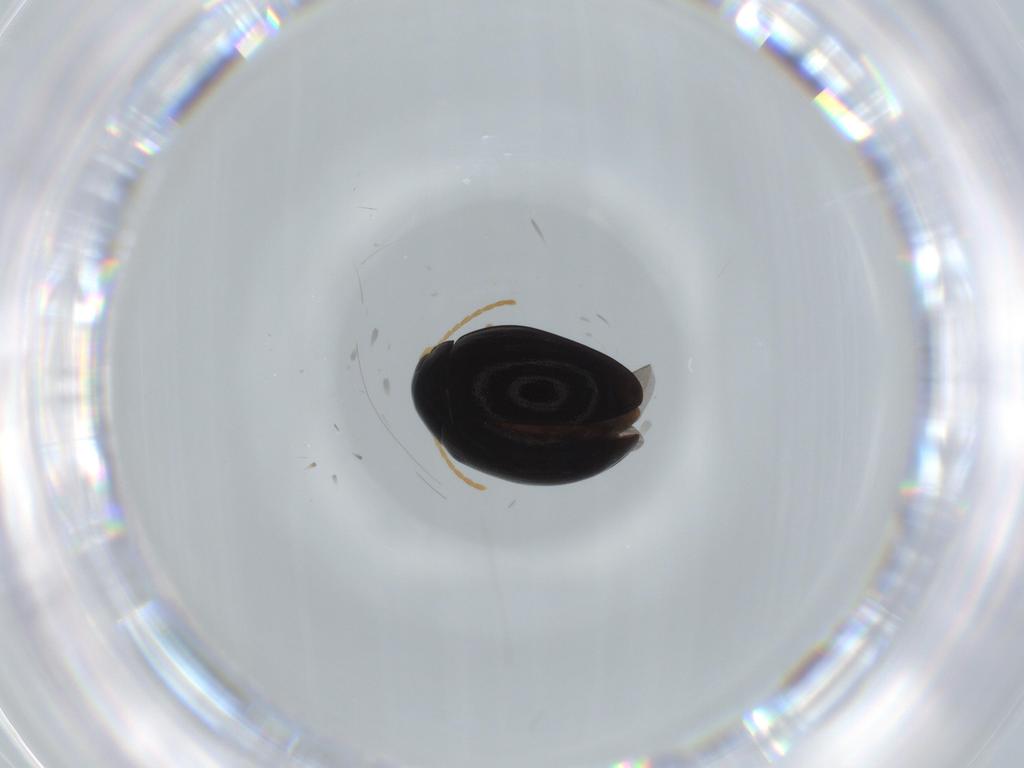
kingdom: Animalia
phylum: Arthropoda
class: Insecta
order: Coleoptera
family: Chrysomelidae
